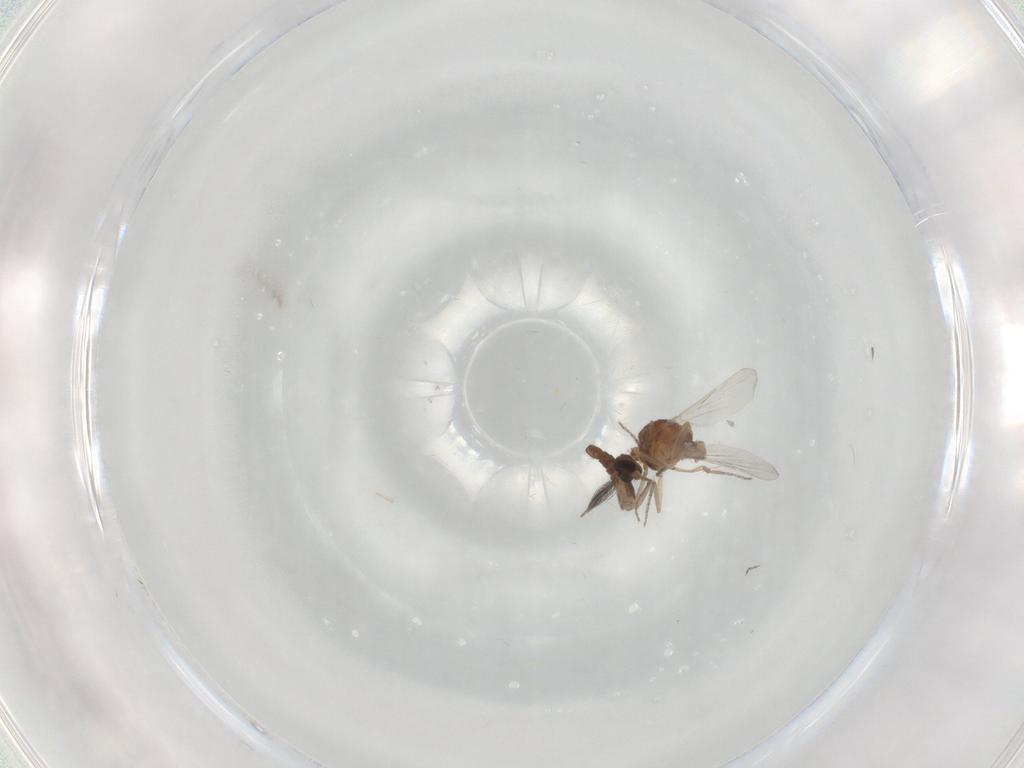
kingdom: Animalia
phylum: Arthropoda
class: Insecta
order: Diptera
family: Ceratopogonidae
